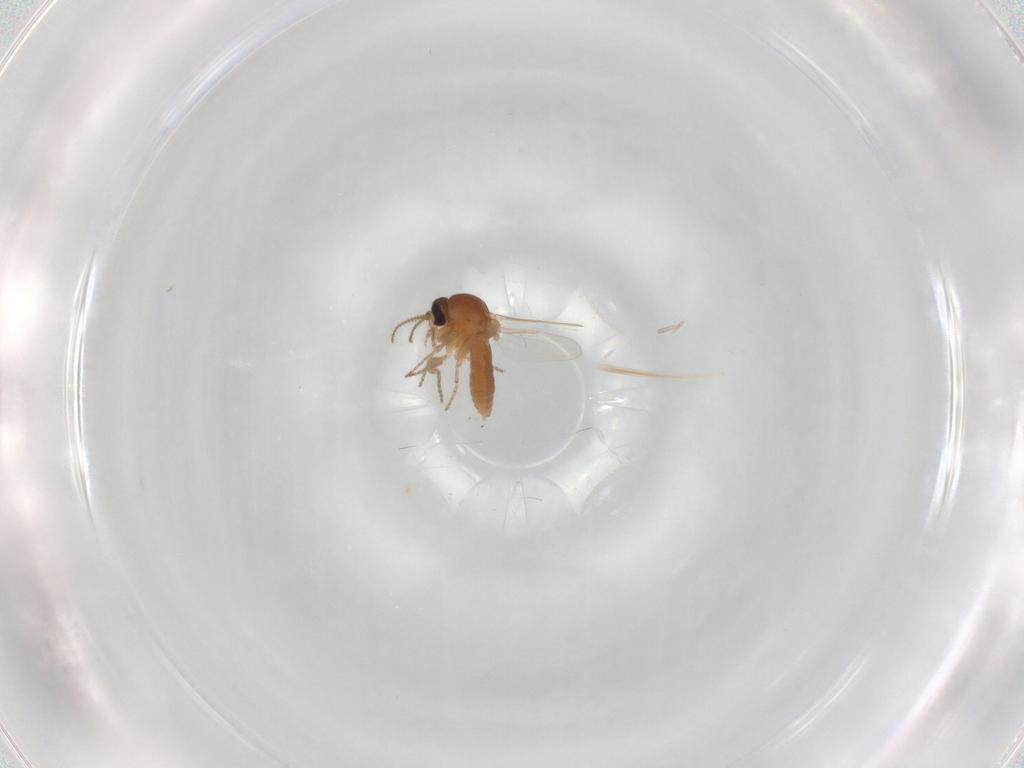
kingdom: Animalia
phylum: Arthropoda
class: Insecta
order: Diptera
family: Ceratopogonidae
